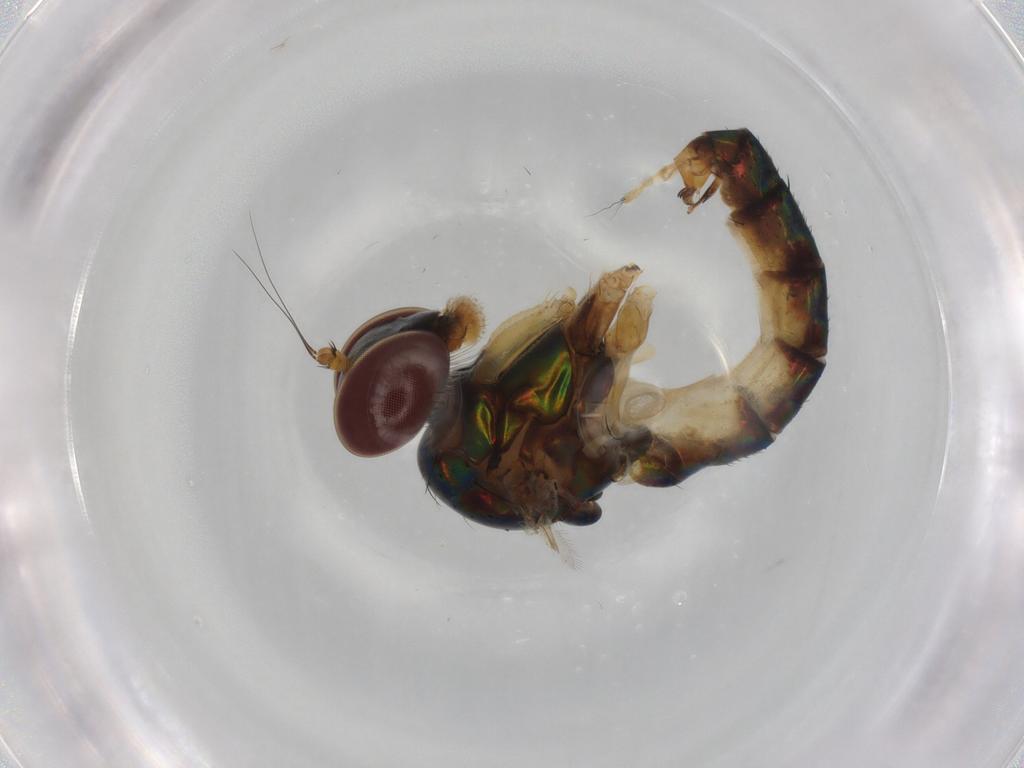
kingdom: Animalia
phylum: Arthropoda
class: Insecta
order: Diptera
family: Dolichopodidae
